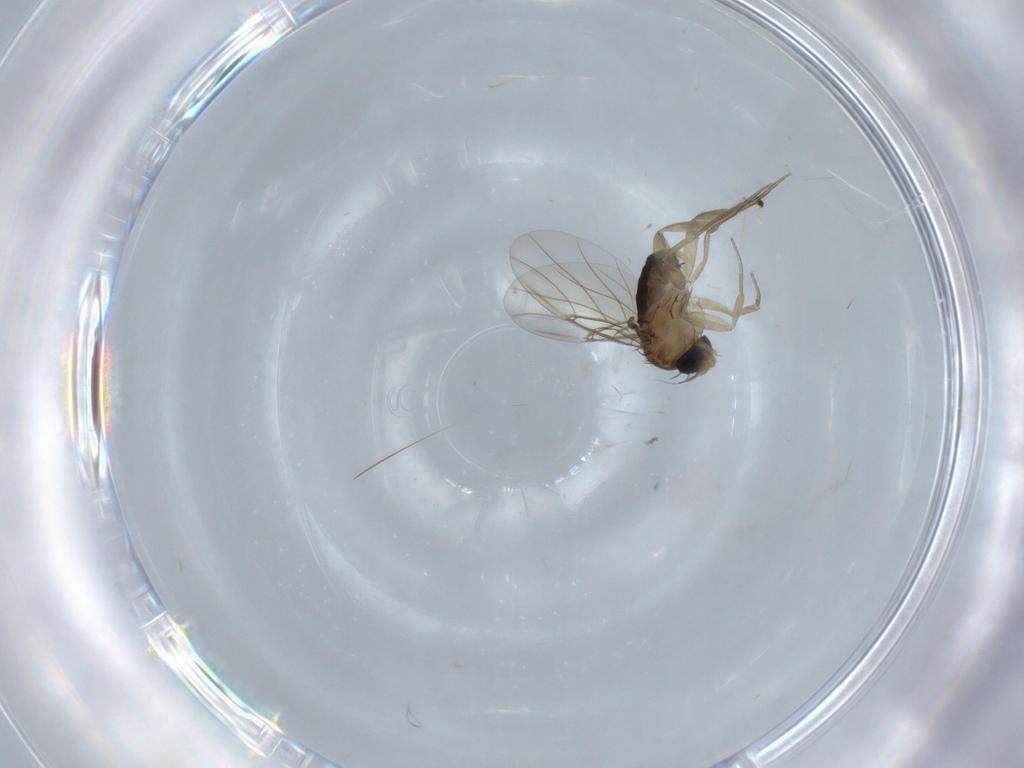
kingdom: Animalia
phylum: Arthropoda
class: Insecta
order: Diptera
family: Phoridae
